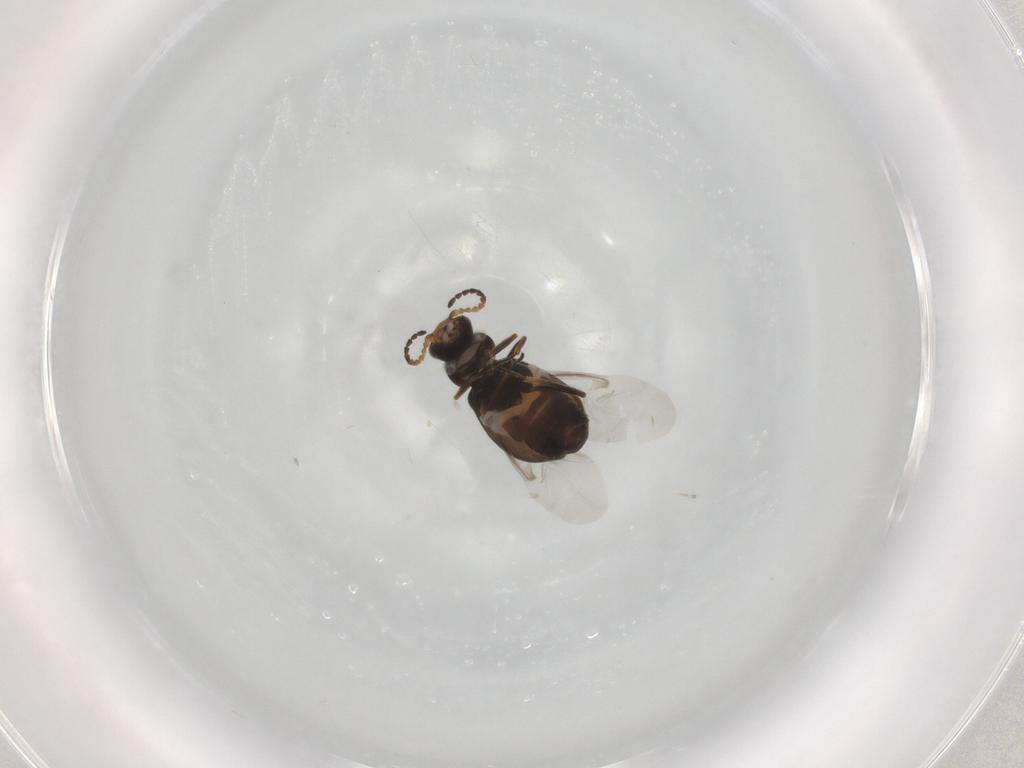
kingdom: Animalia
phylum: Arthropoda
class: Insecta
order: Coleoptera
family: Melyridae
